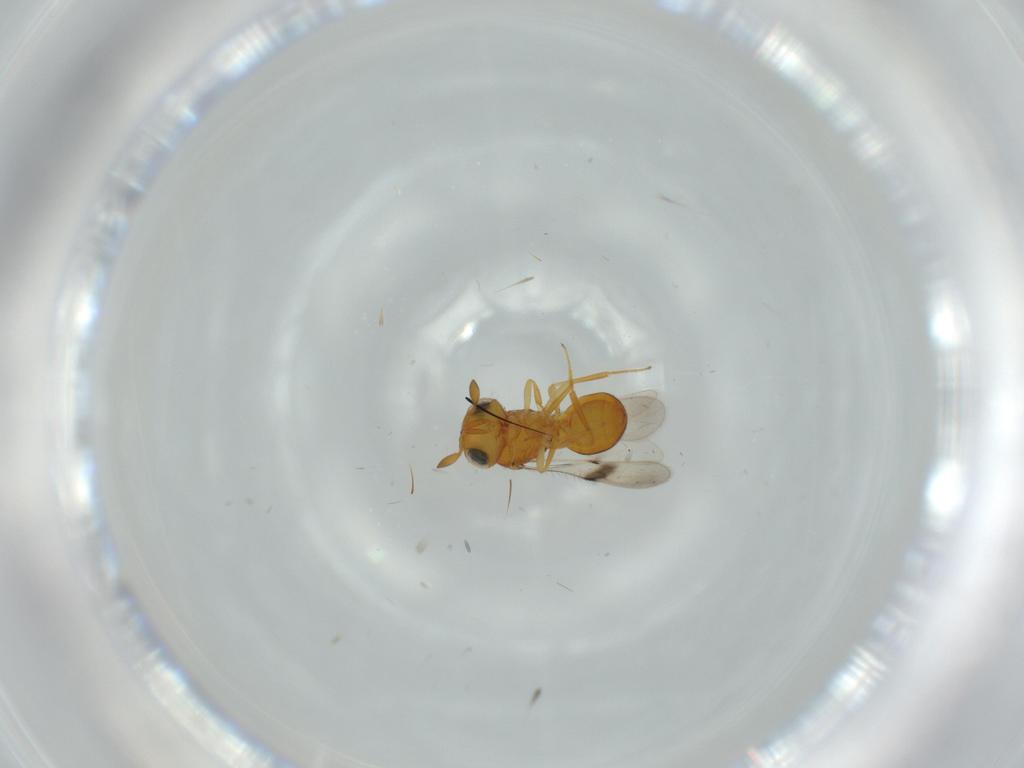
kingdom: Animalia
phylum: Arthropoda
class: Insecta
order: Hymenoptera
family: Scelionidae
